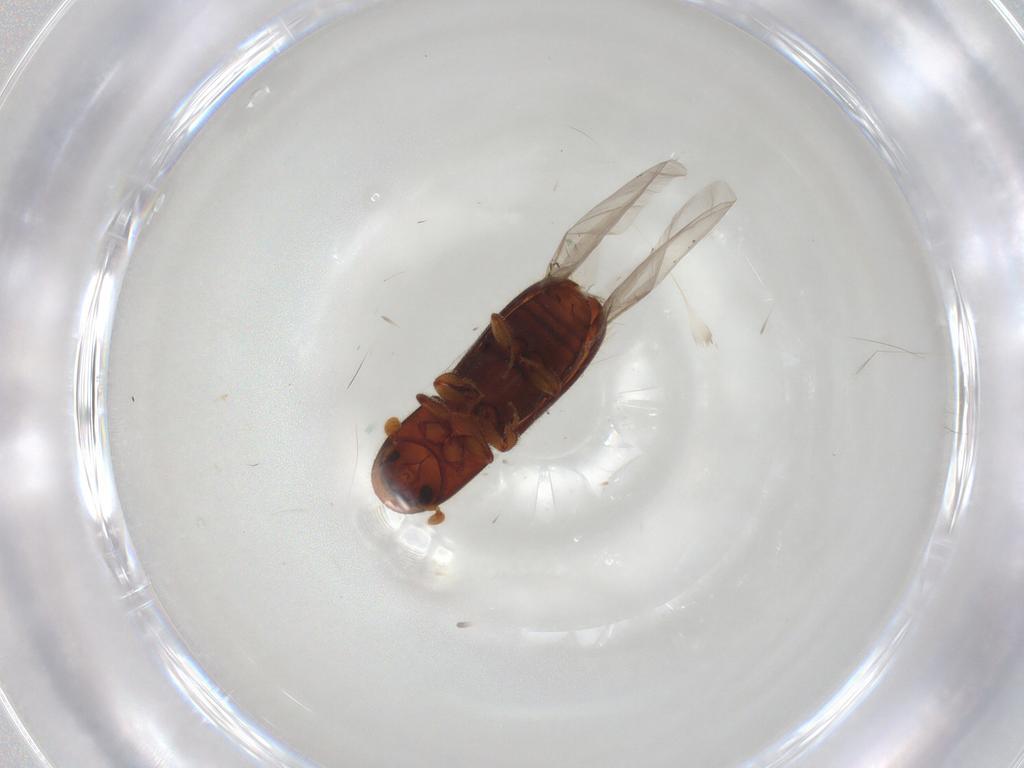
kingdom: Animalia
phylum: Arthropoda
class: Insecta
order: Coleoptera
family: Curculionidae
